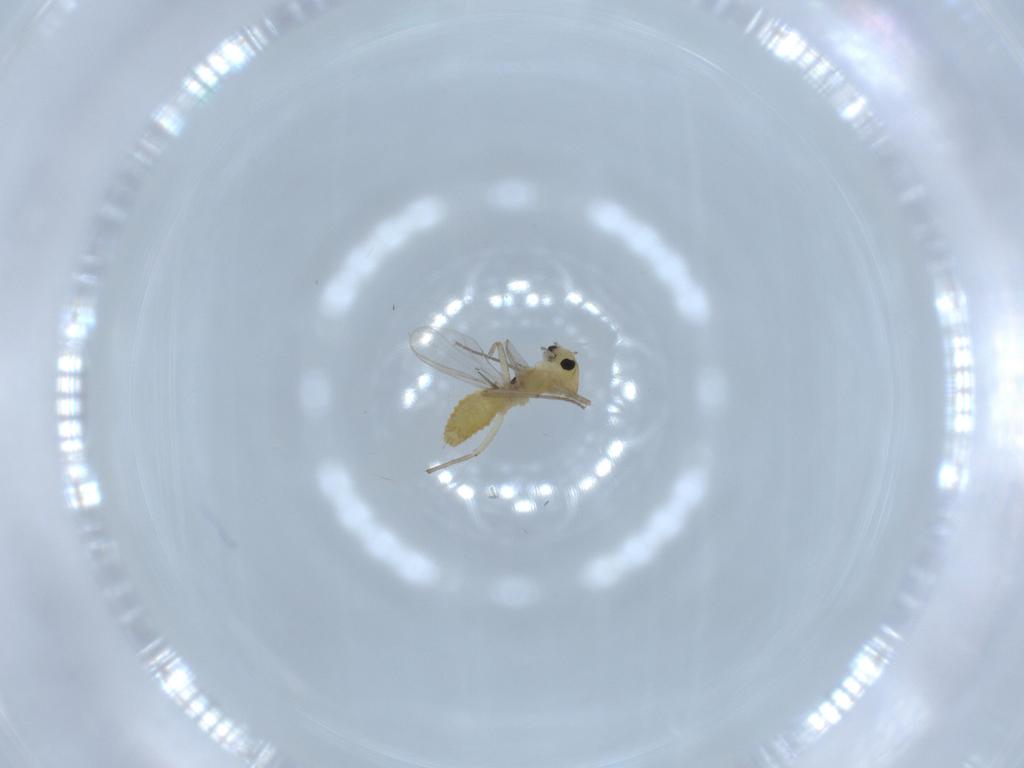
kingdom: Animalia
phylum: Arthropoda
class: Insecta
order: Diptera
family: Chironomidae
